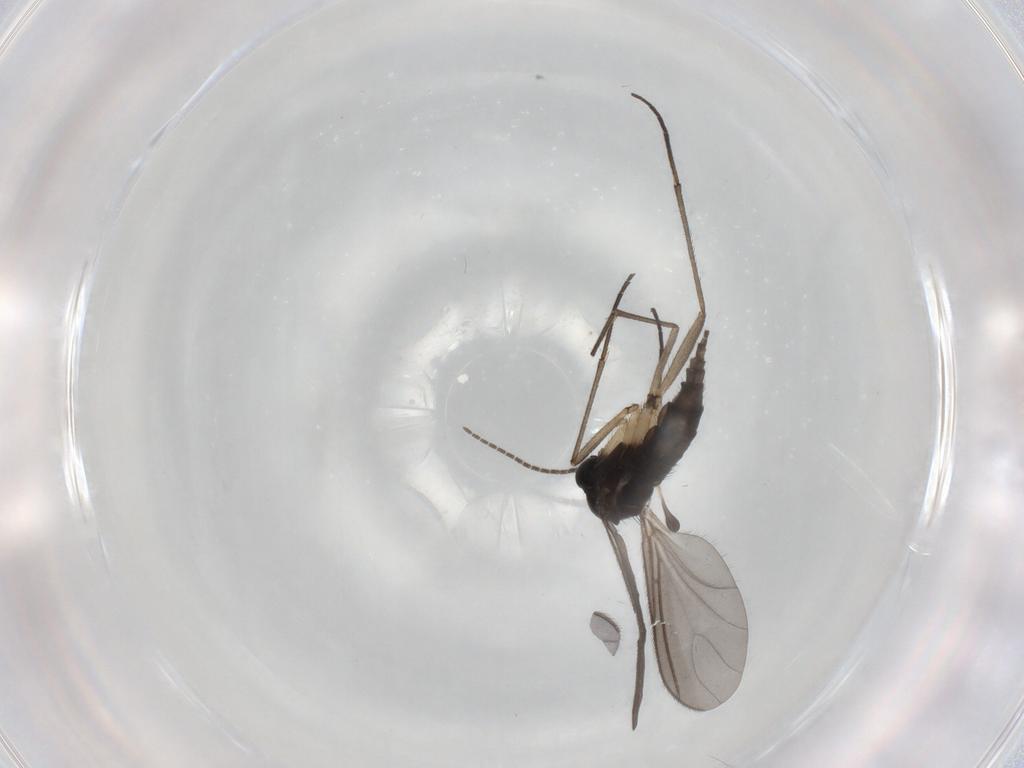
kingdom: Animalia
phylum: Arthropoda
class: Insecta
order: Diptera
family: Sciaridae
